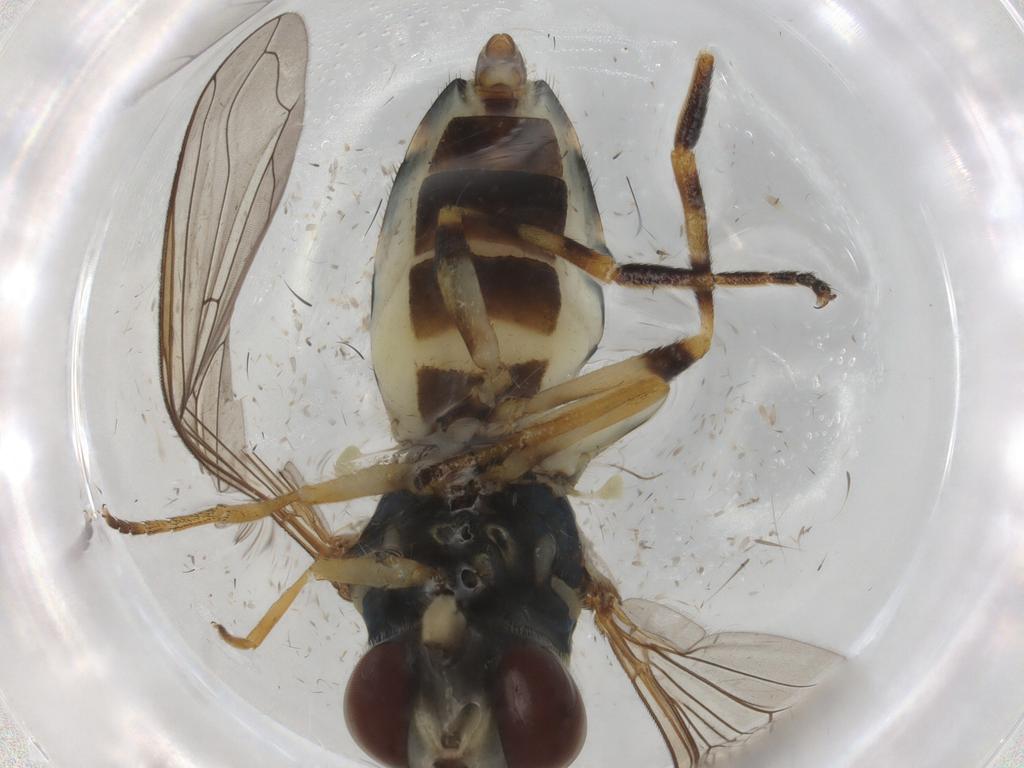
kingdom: Animalia
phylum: Arthropoda
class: Insecta
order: Diptera
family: Syrphidae
